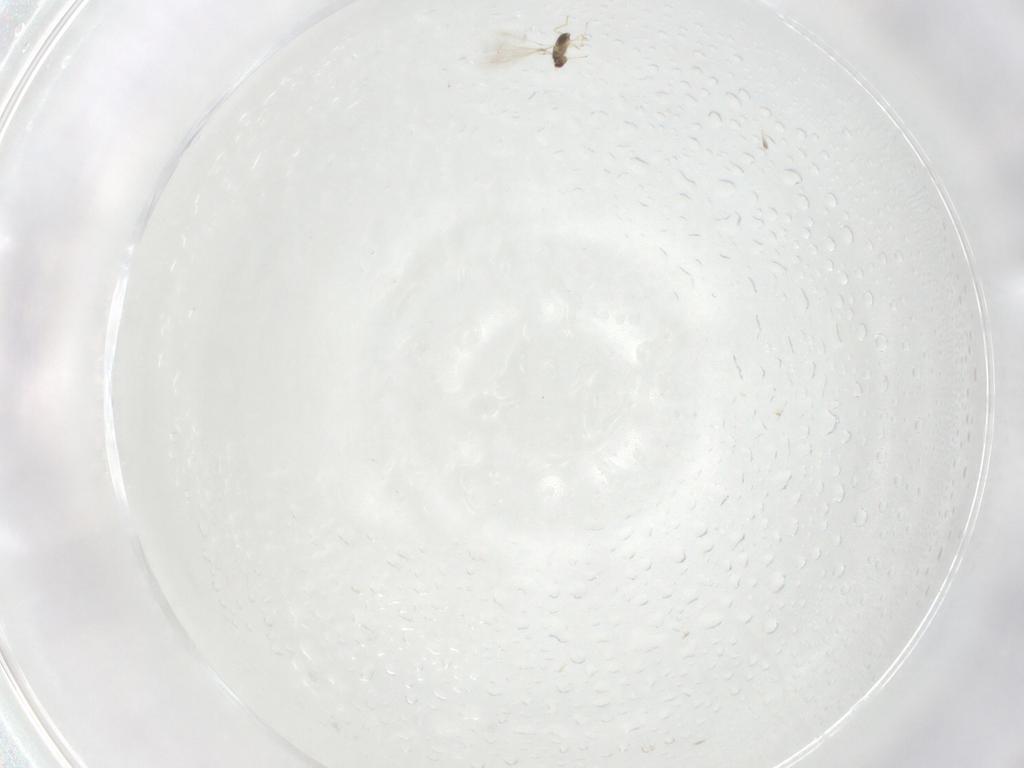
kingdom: Animalia
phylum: Arthropoda
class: Insecta
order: Hymenoptera
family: Mymaridae
